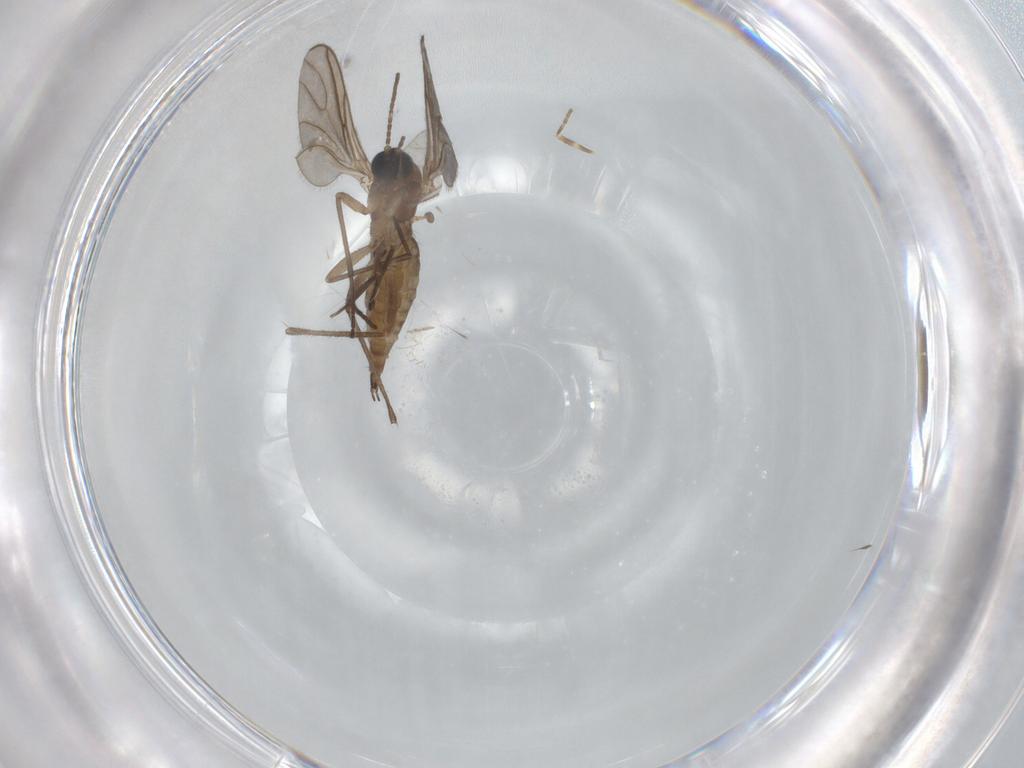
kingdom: Animalia
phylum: Arthropoda
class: Insecta
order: Diptera
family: Sciaridae
